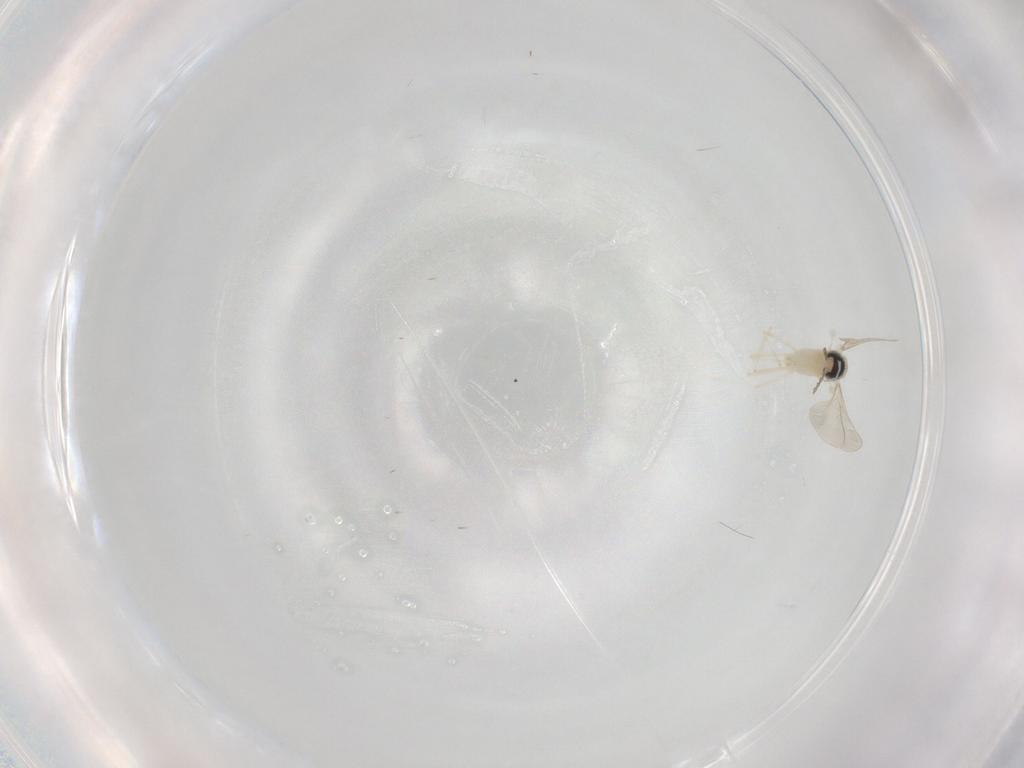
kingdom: Animalia
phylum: Arthropoda
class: Insecta
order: Diptera
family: Cecidomyiidae
